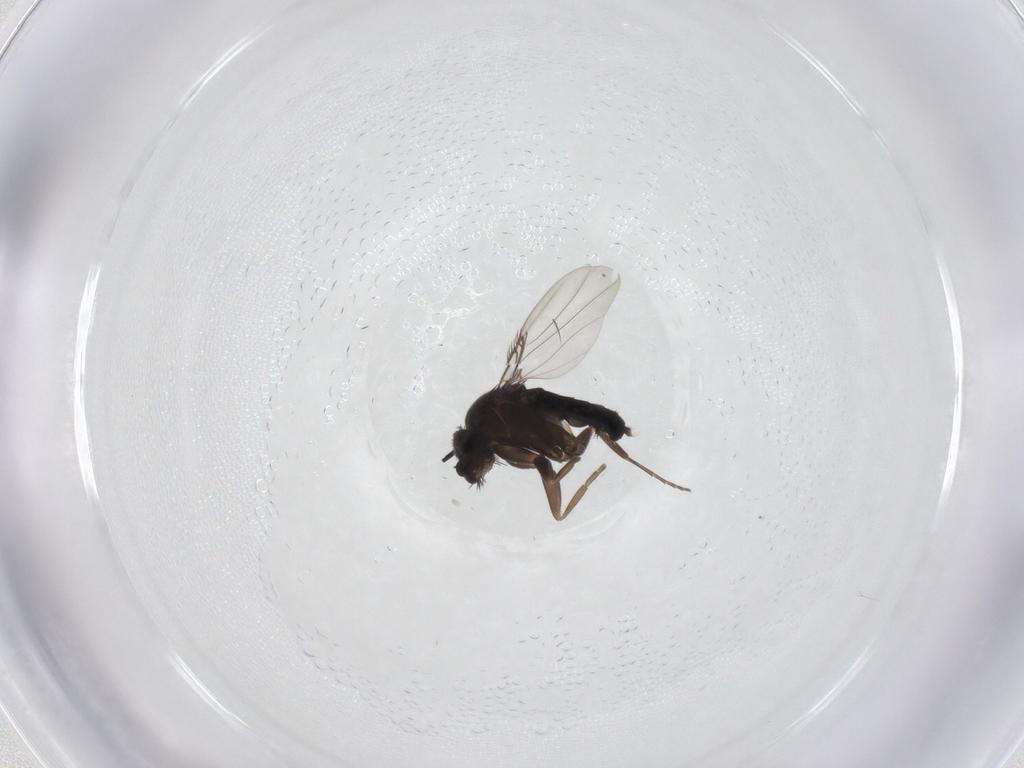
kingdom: Animalia
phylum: Arthropoda
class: Insecta
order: Diptera
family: Phoridae
